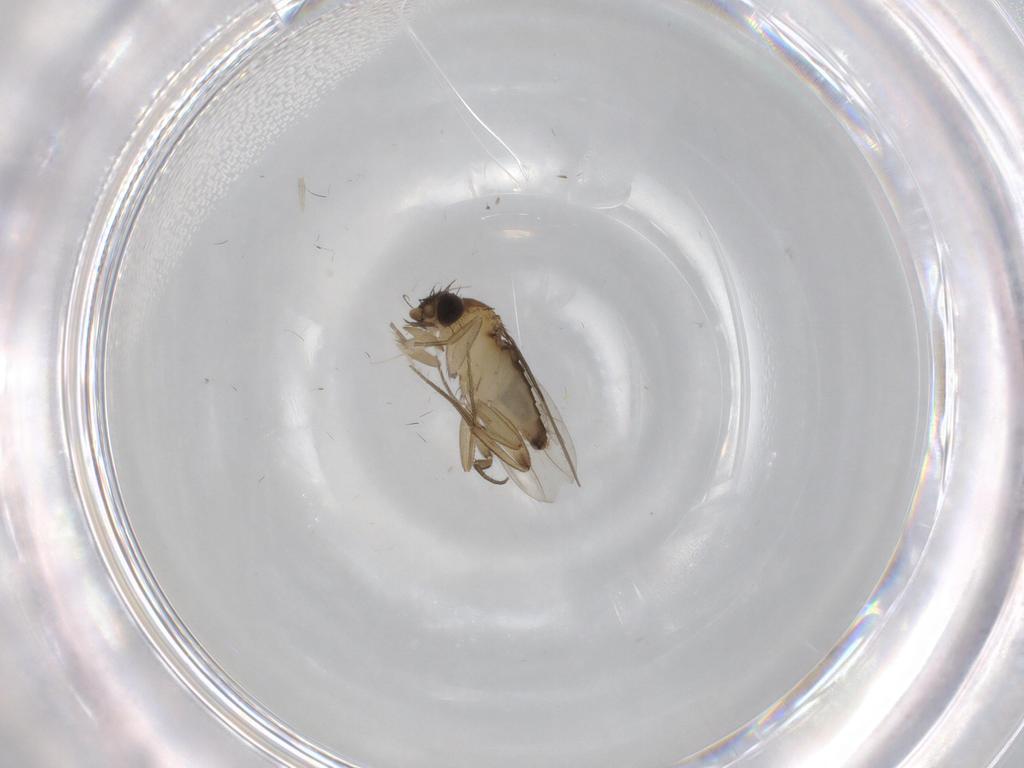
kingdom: Animalia
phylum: Arthropoda
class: Insecta
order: Diptera
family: Phoridae
